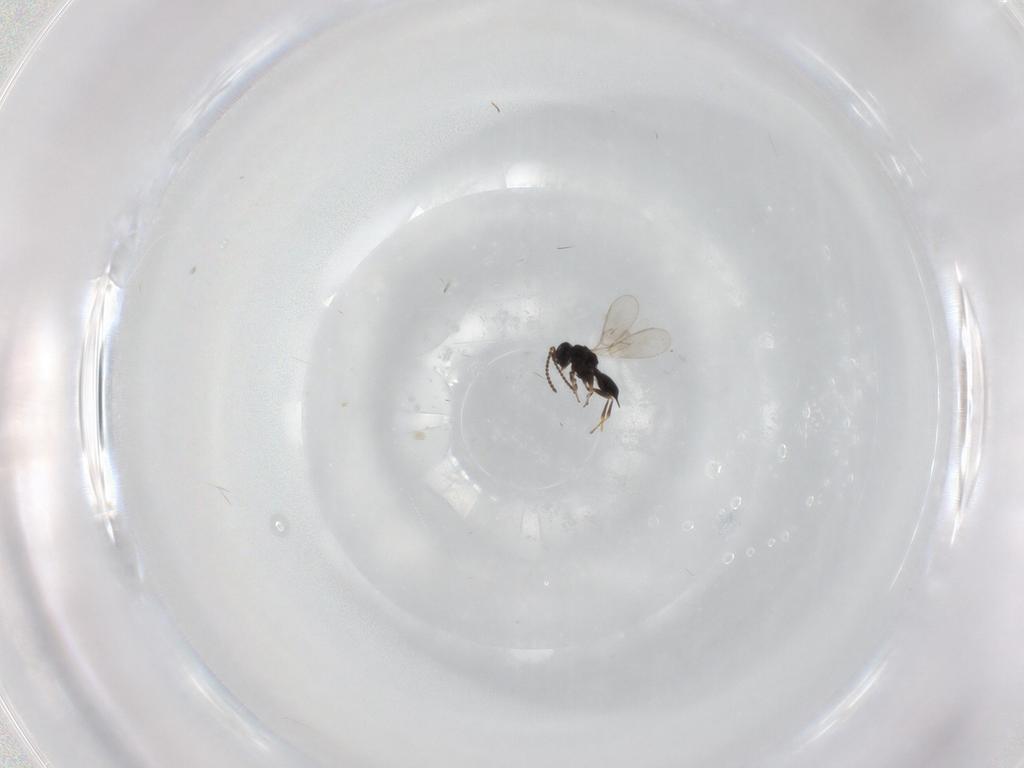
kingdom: Animalia
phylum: Arthropoda
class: Insecta
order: Hymenoptera
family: Scelionidae
